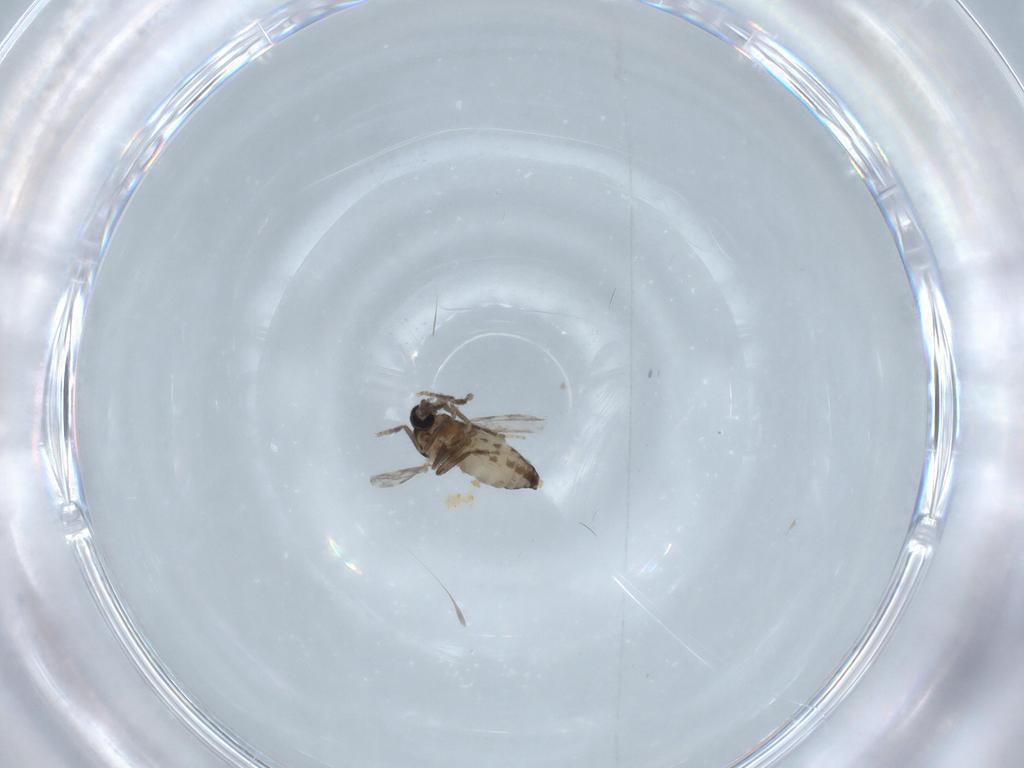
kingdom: Animalia
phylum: Arthropoda
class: Insecta
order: Diptera
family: Ceratopogonidae
